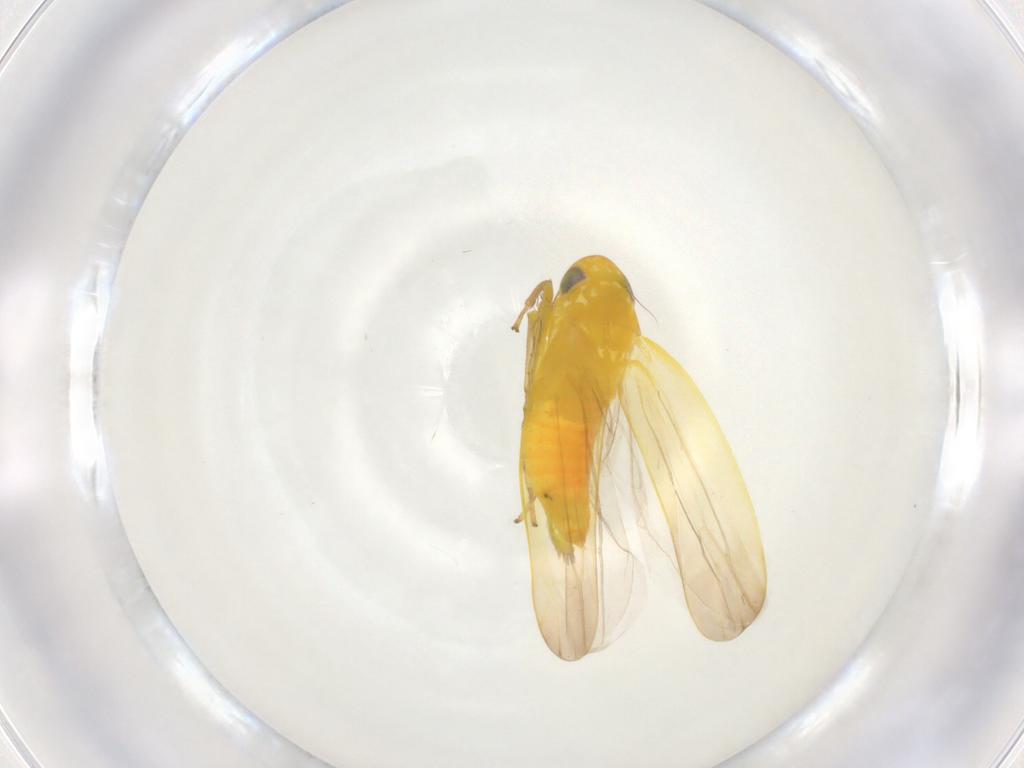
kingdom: Animalia
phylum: Arthropoda
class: Insecta
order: Hemiptera
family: Cicadellidae
